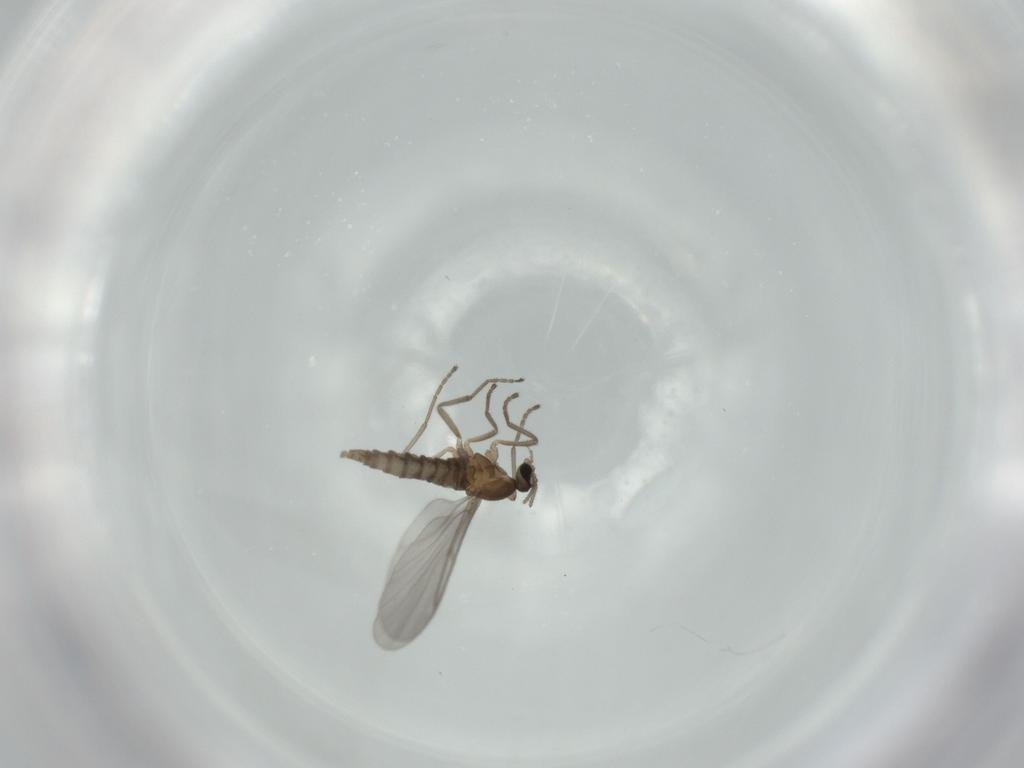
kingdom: Animalia
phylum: Arthropoda
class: Insecta
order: Diptera
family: Cecidomyiidae
